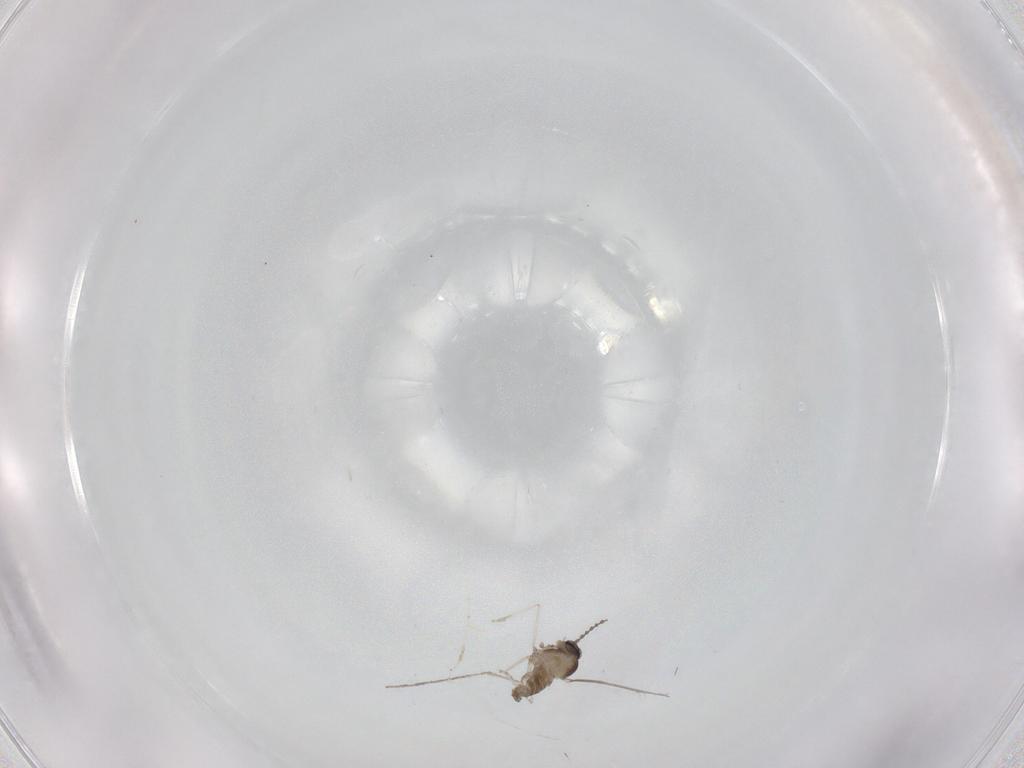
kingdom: Animalia
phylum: Arthropoda
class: Insecta
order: Diptera
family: Cecidomyiidae
